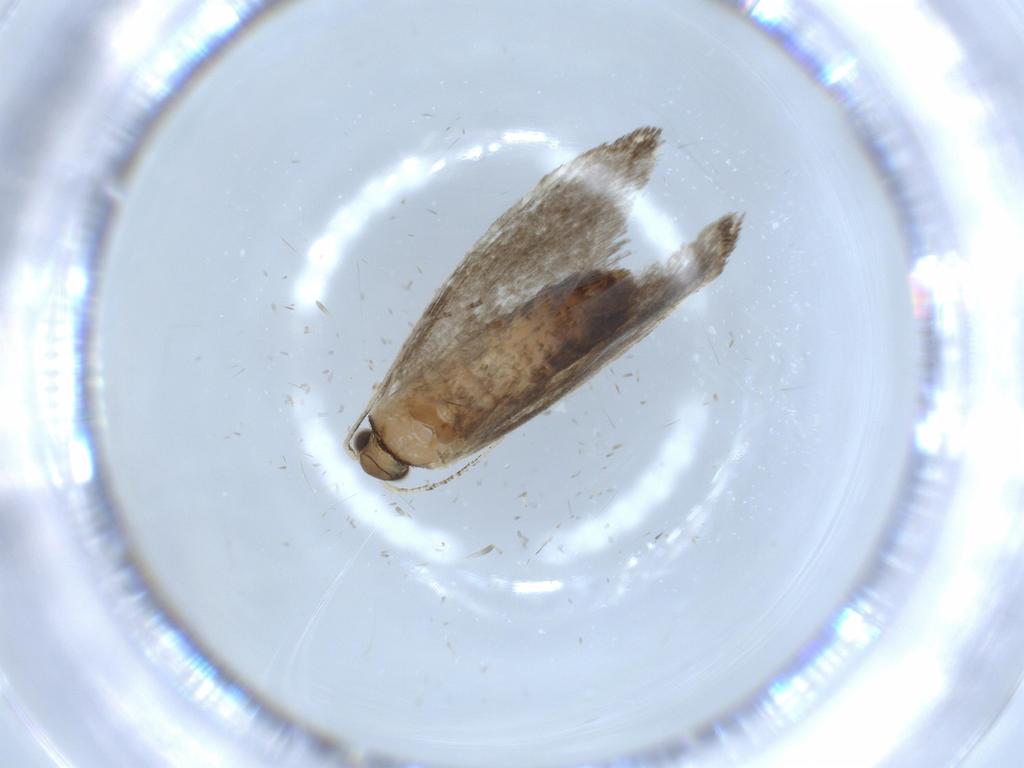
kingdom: Animalia
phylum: Arthropoda
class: Insecta
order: Lepidoptera
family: Tineidae
